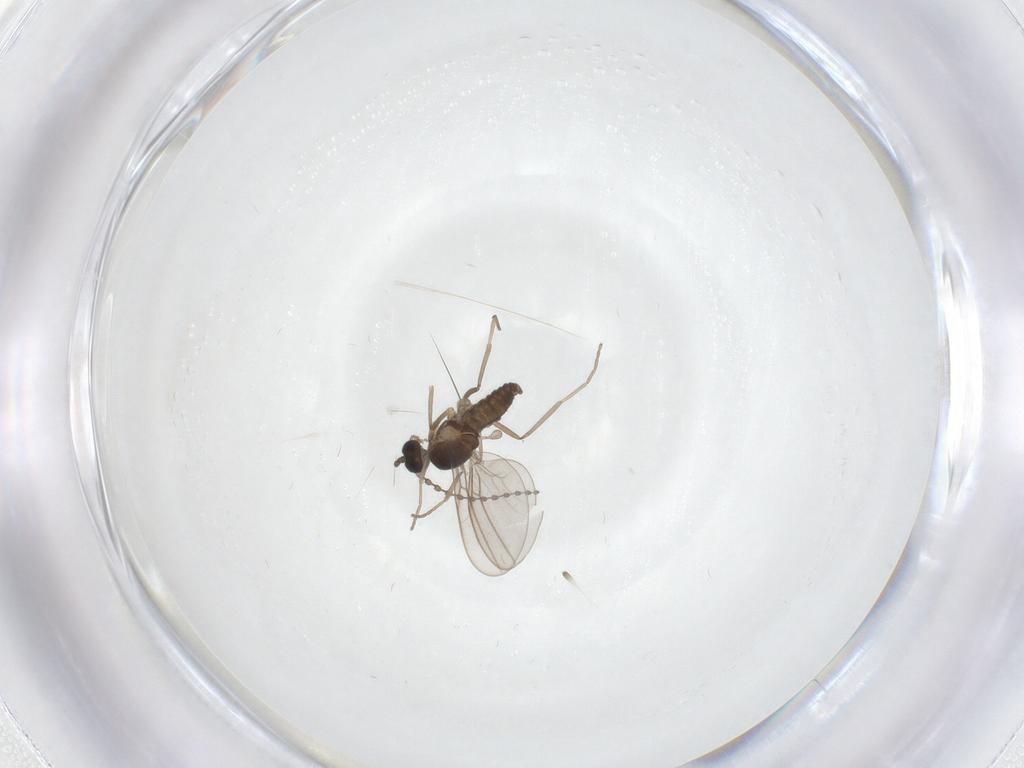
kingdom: Animalia
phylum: Arthropoda
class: Insecta
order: Diptera
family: Cecidomyiidae
